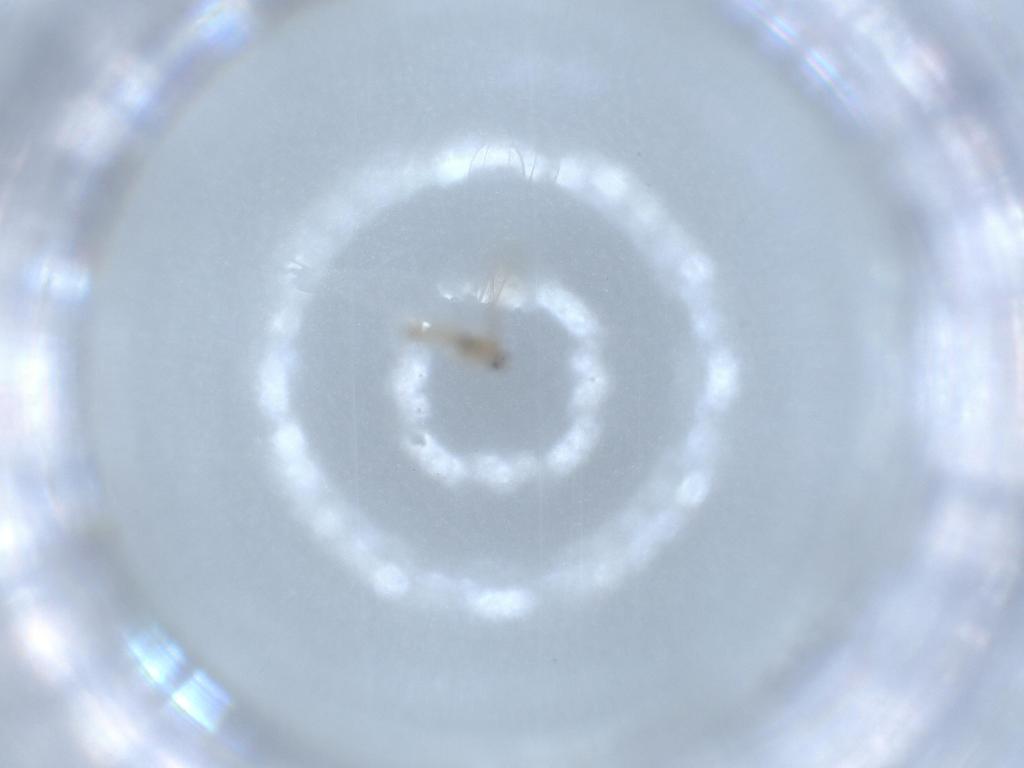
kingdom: Animalia
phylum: Arthropoda
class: Insecta
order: Diptera
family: Cecidomyiidae
